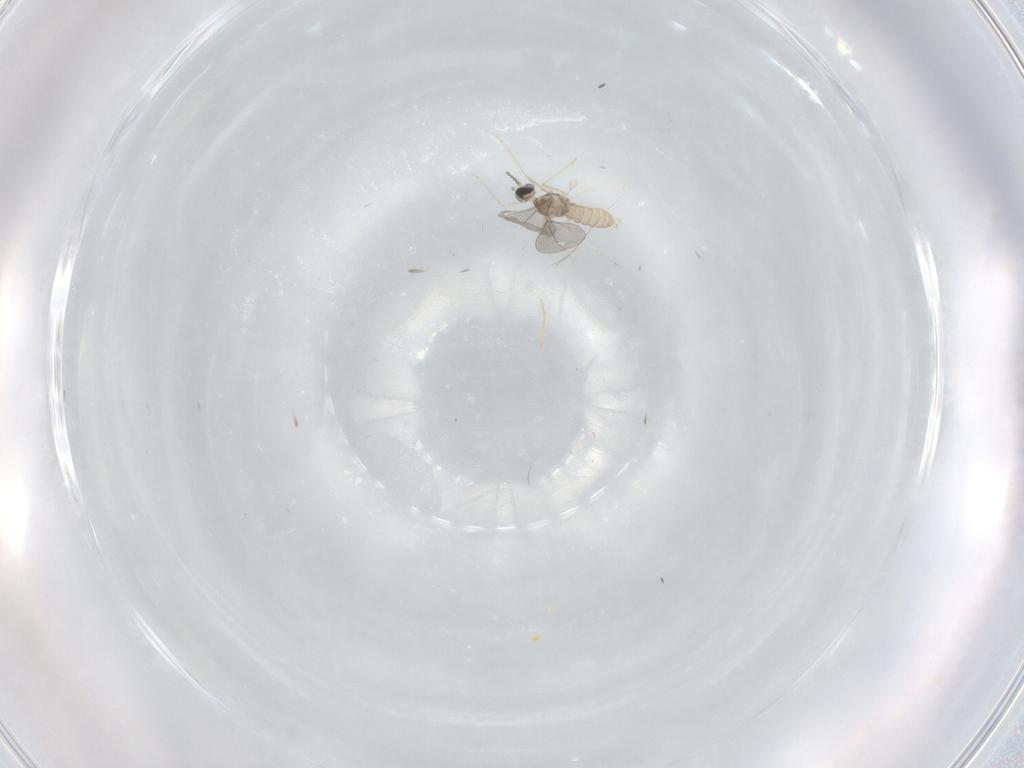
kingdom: Animalia
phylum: Arthropoda
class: Insecta
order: Diptera
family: Cecidomyiidae
